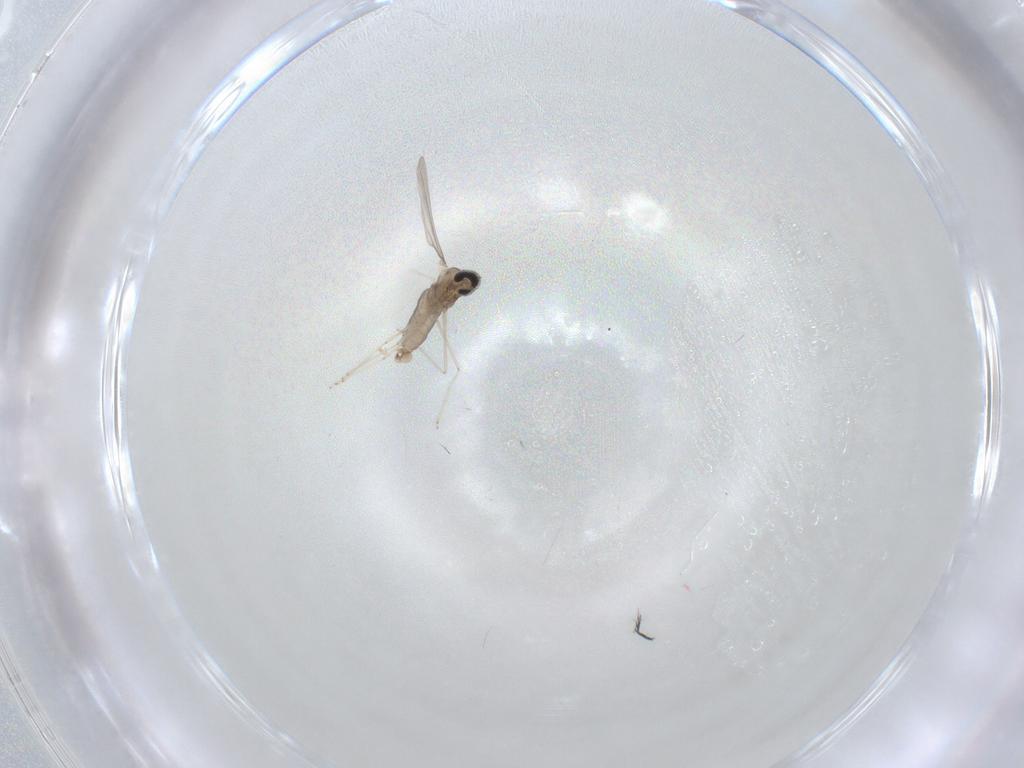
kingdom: Animalia
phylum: Arthropoda
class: Insecta
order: Diptera
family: Cecidomyiidae
